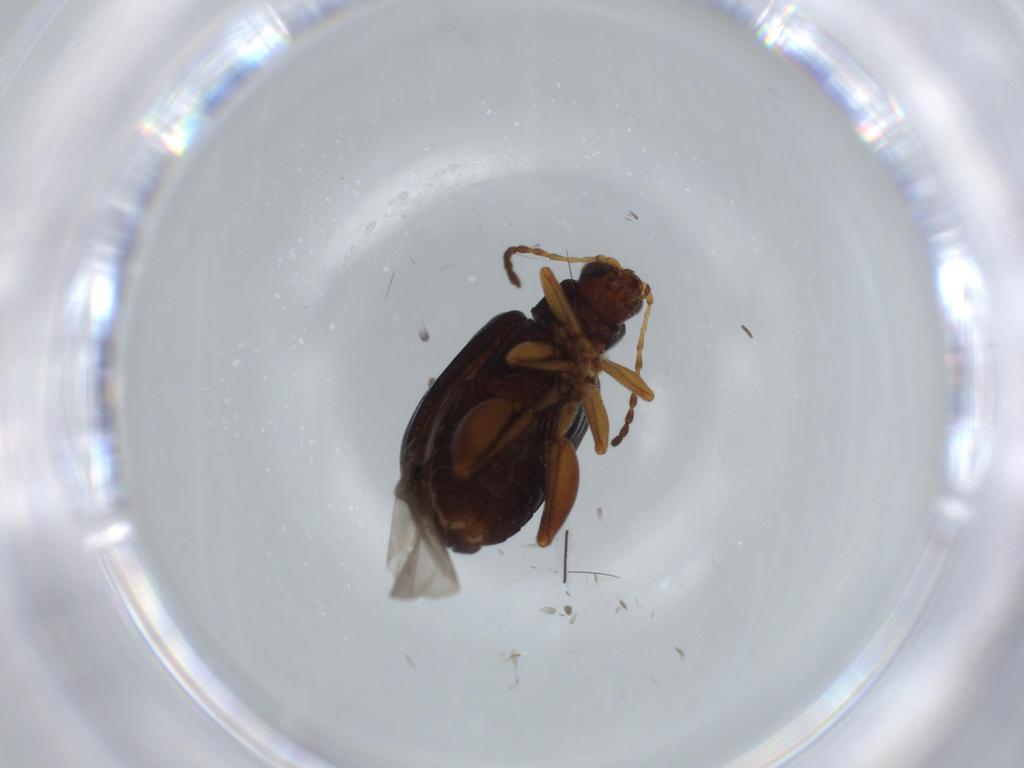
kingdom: Animalia
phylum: Arthropoda
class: Insecta
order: Coleoptera
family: Chrysomelidae
